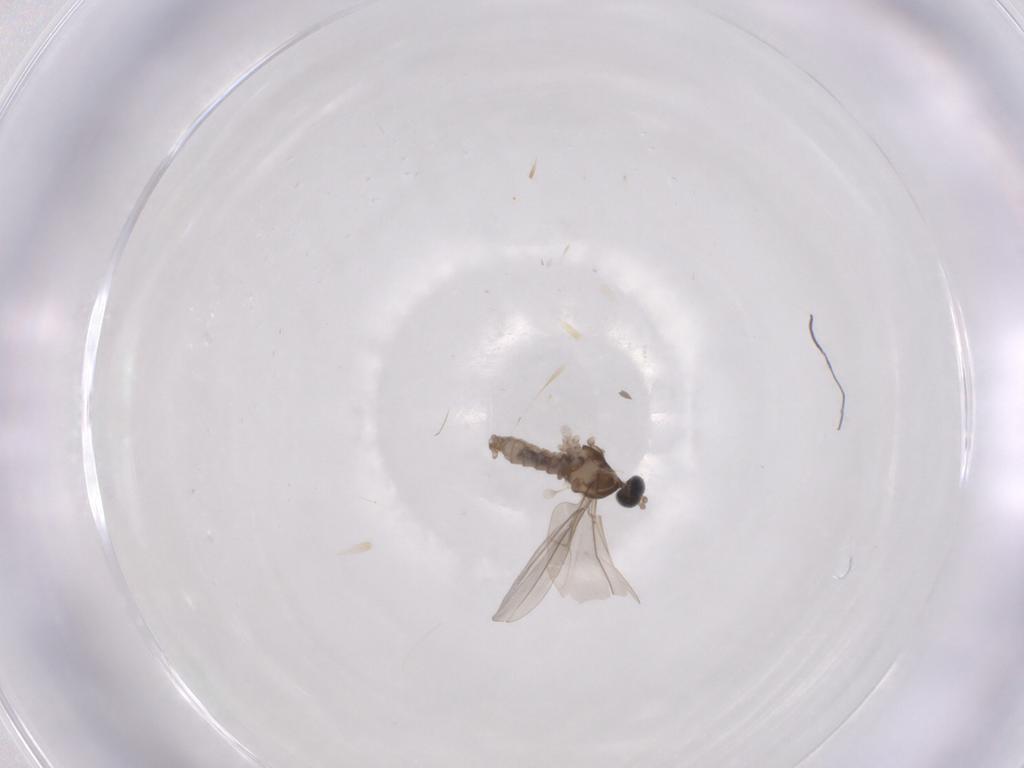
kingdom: Animalia
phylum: Arthropoda
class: Insecta
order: Diptera
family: Cecidomyiidae
